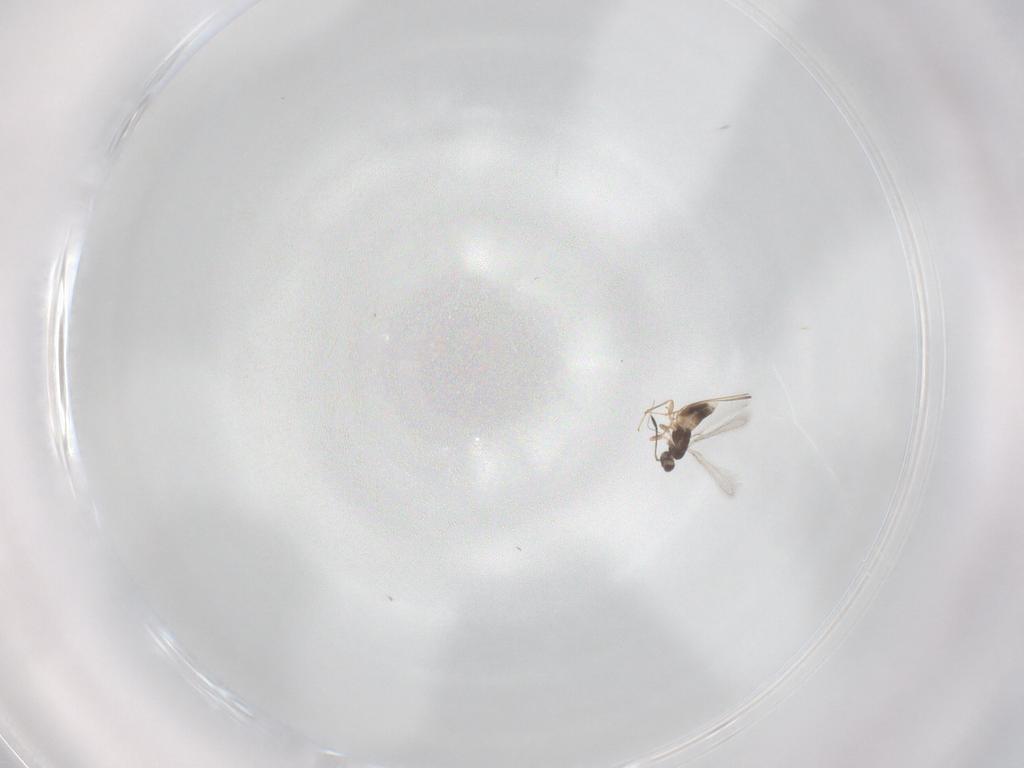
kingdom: Animalia
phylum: Arthropoda
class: Insecta
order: Hymenoptera
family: Mymaridae
